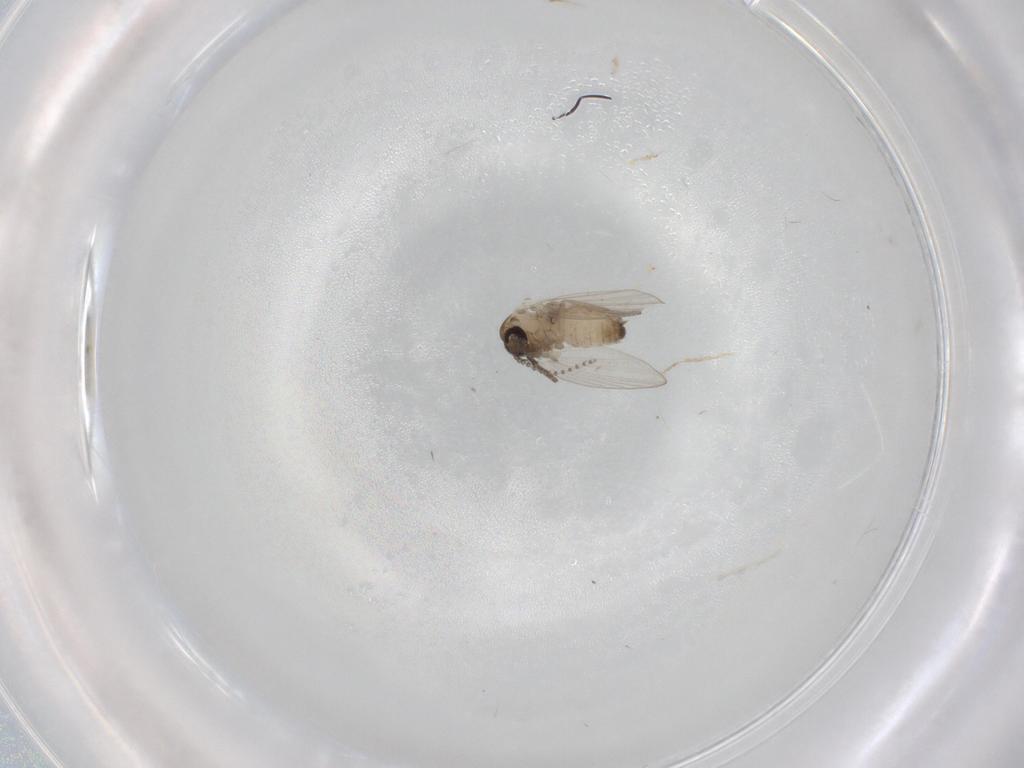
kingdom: Animalia
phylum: Arthropoda
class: Insecta
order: Diptera
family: Psychodidae
